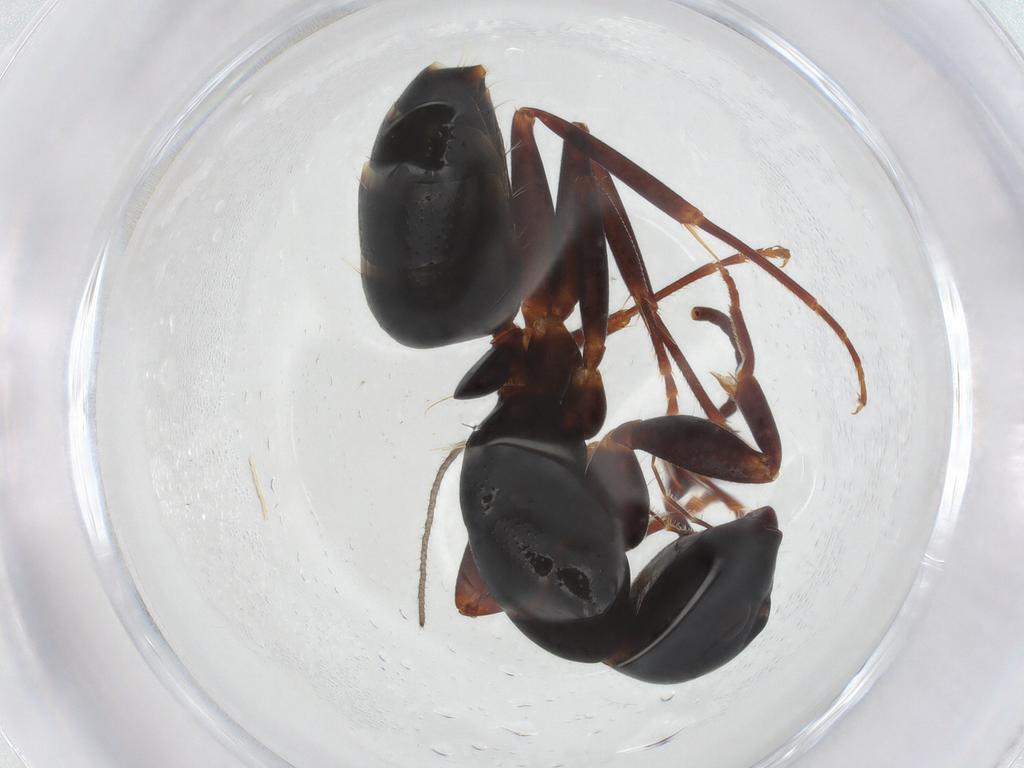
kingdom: Animalia
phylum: Arthropoda
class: Insecta
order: Hymenoptera
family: Formicidae
